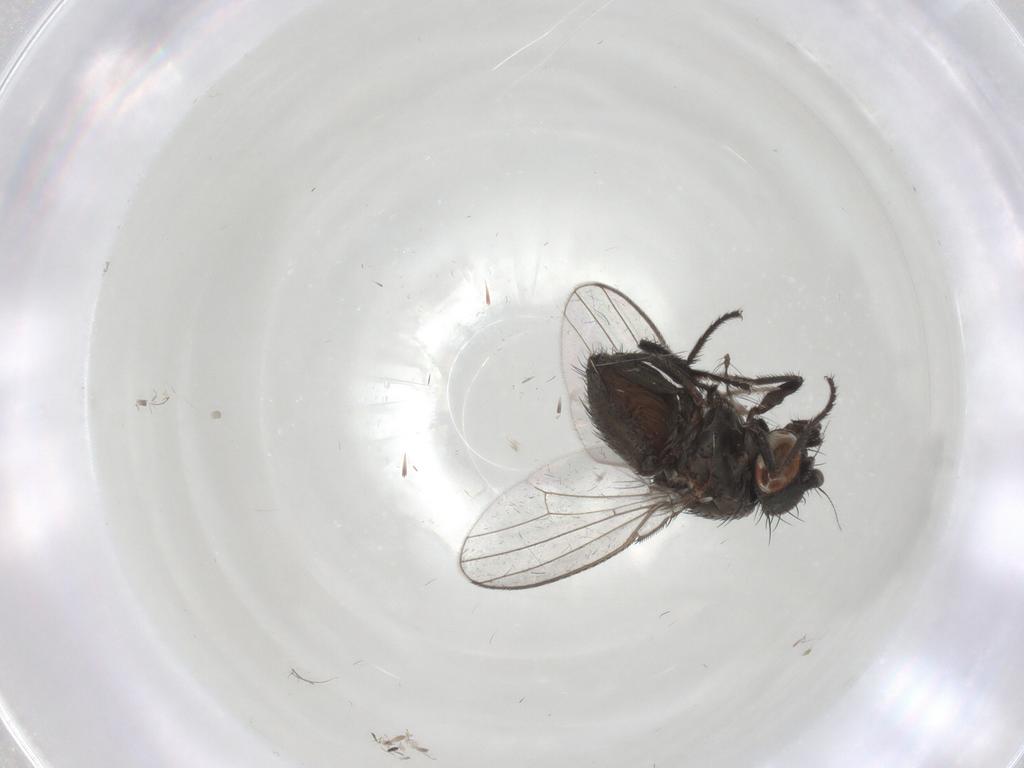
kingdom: Animalia
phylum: Arthropoda
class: Insecta
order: Diptera
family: Milichiidae
